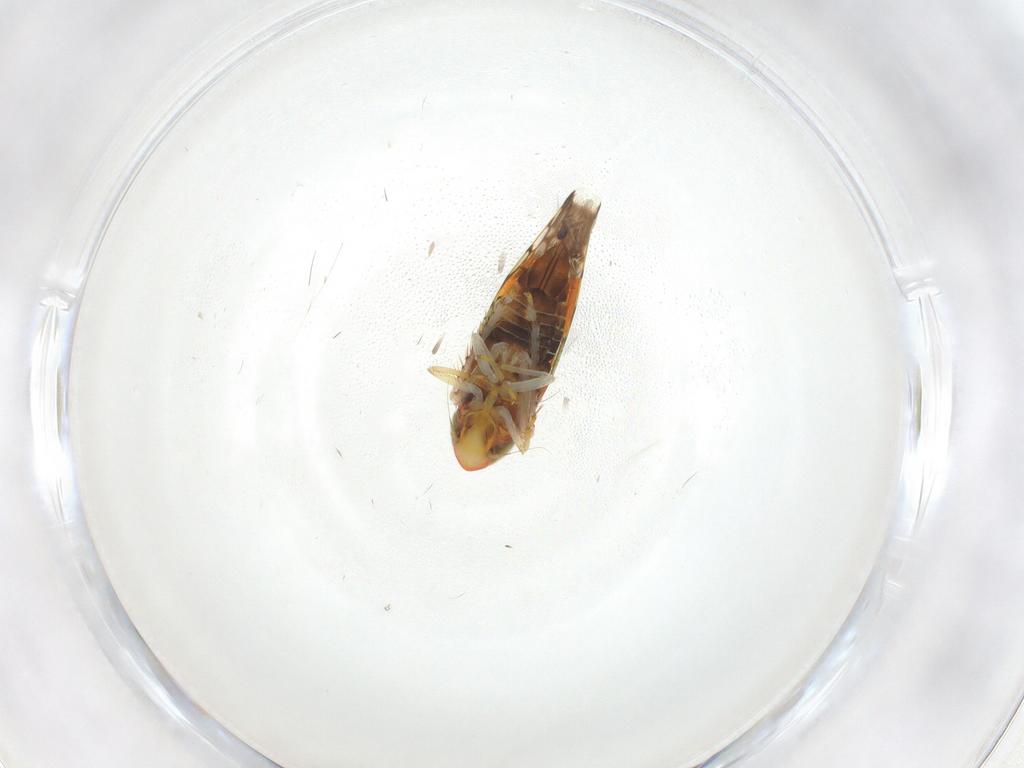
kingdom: Animalia
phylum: Arthropoda
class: Insecta
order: Hemiptera
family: Cicadellidae
